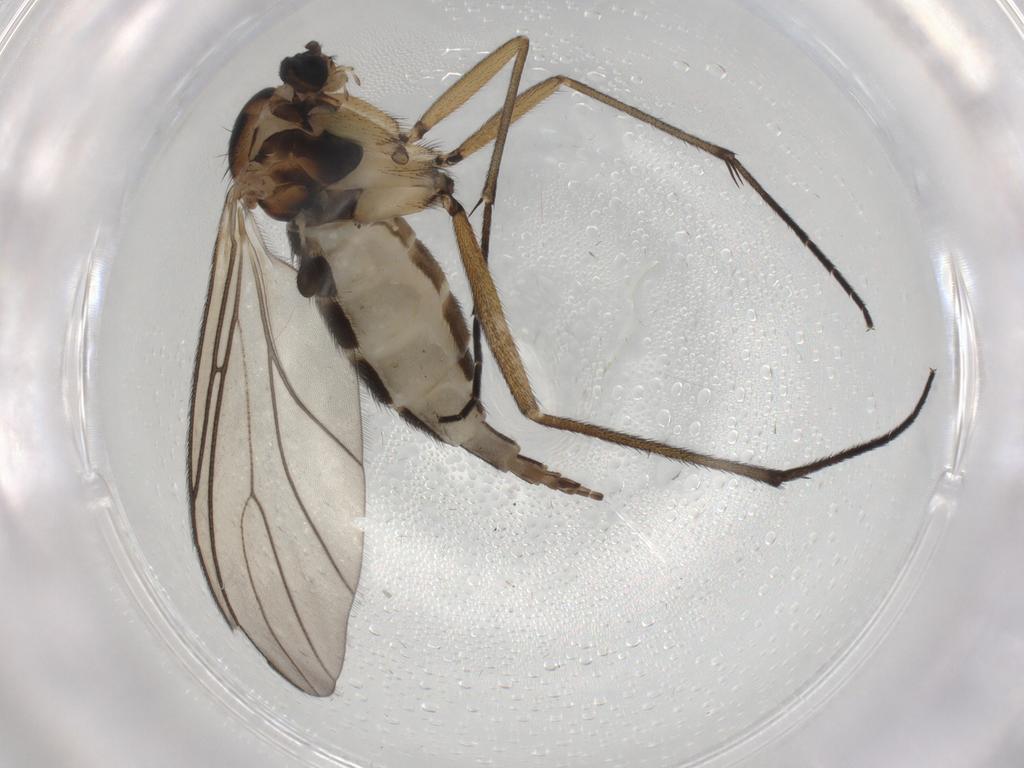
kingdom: Animalia
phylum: Arthropoda
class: Insecta
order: Diptera
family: Sciaridae
